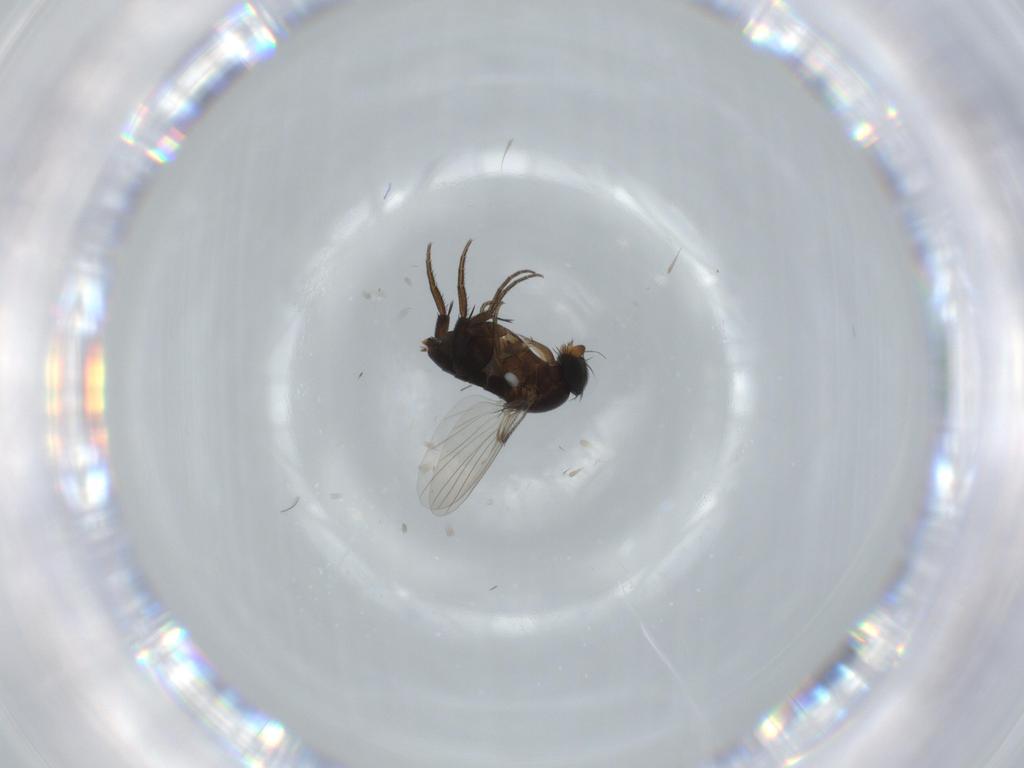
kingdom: Animalia
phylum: Arthropoda
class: Insecta
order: Diptera
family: Phoridae
